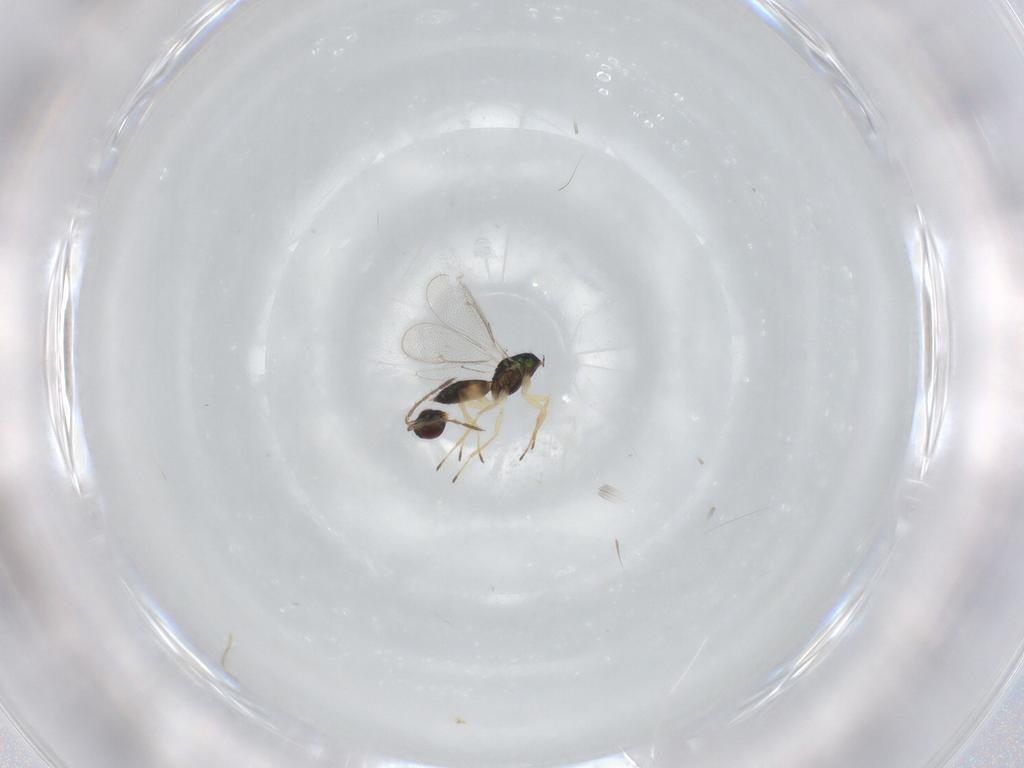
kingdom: Animalia
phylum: Arthropoda
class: Insecta
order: Hymenoptera
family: Eulophidae
